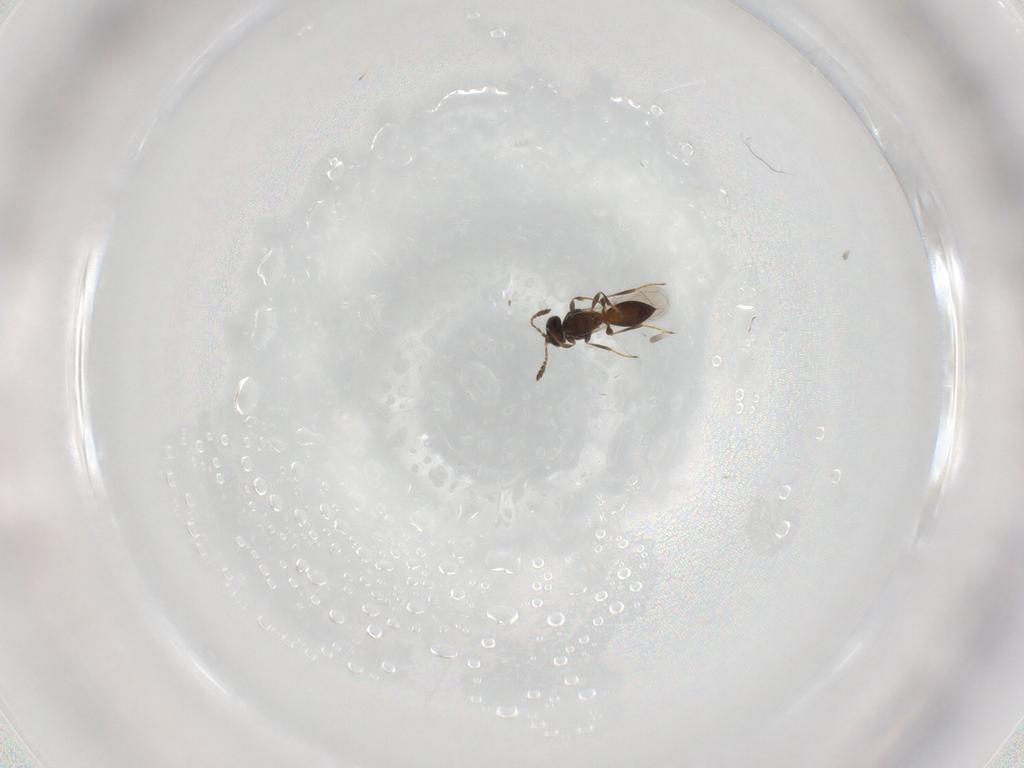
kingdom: Animalia
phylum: Arthropoda
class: Insecta
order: Hymenoptera
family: Platygastridae
